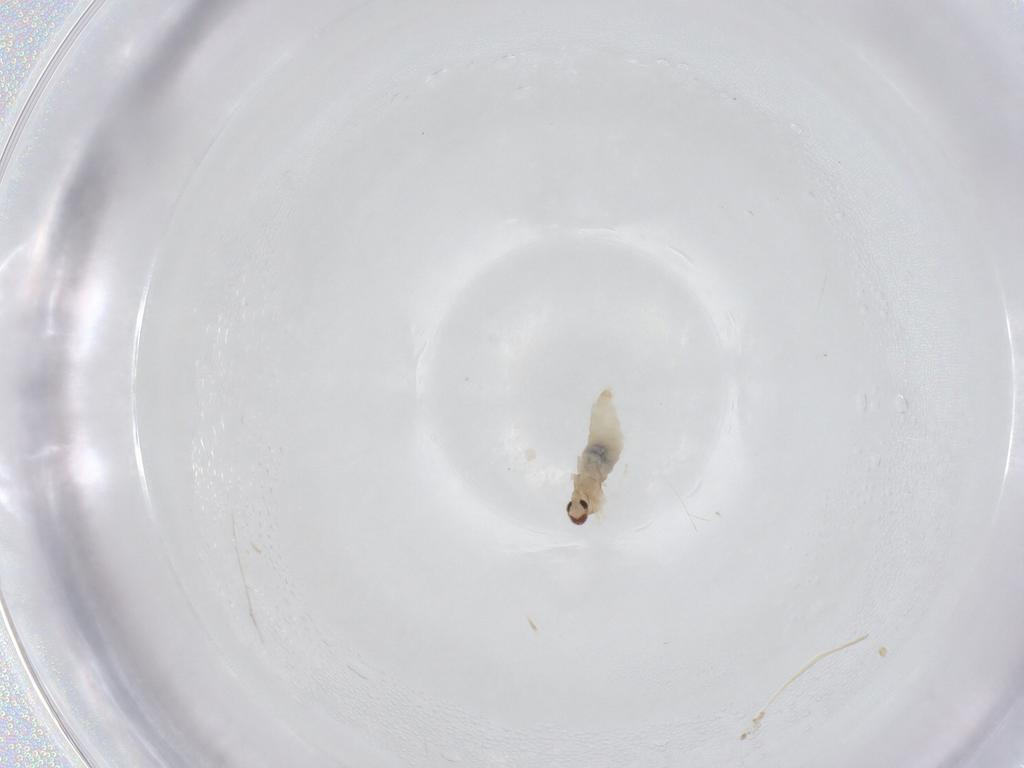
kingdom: Animalia
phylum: Arthropoda
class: Insecta
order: Diptera
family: Cecidomyiidae
